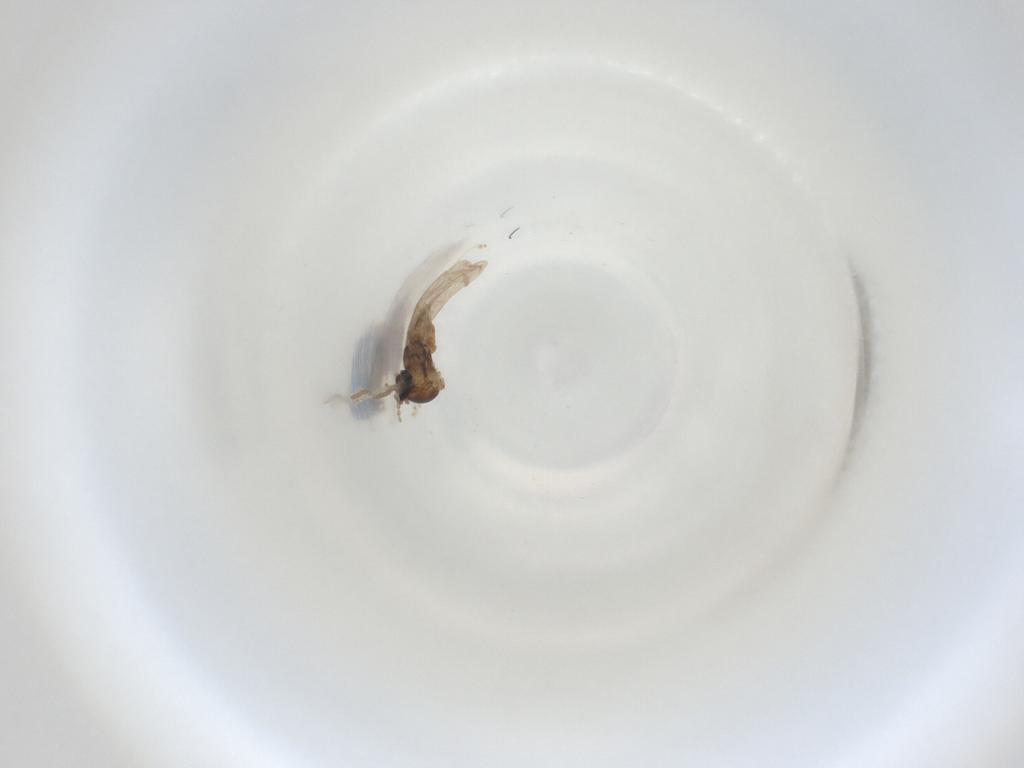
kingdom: Animalia
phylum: Arthropoda
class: Insecta
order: Diptera
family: Cecidomyiidae
